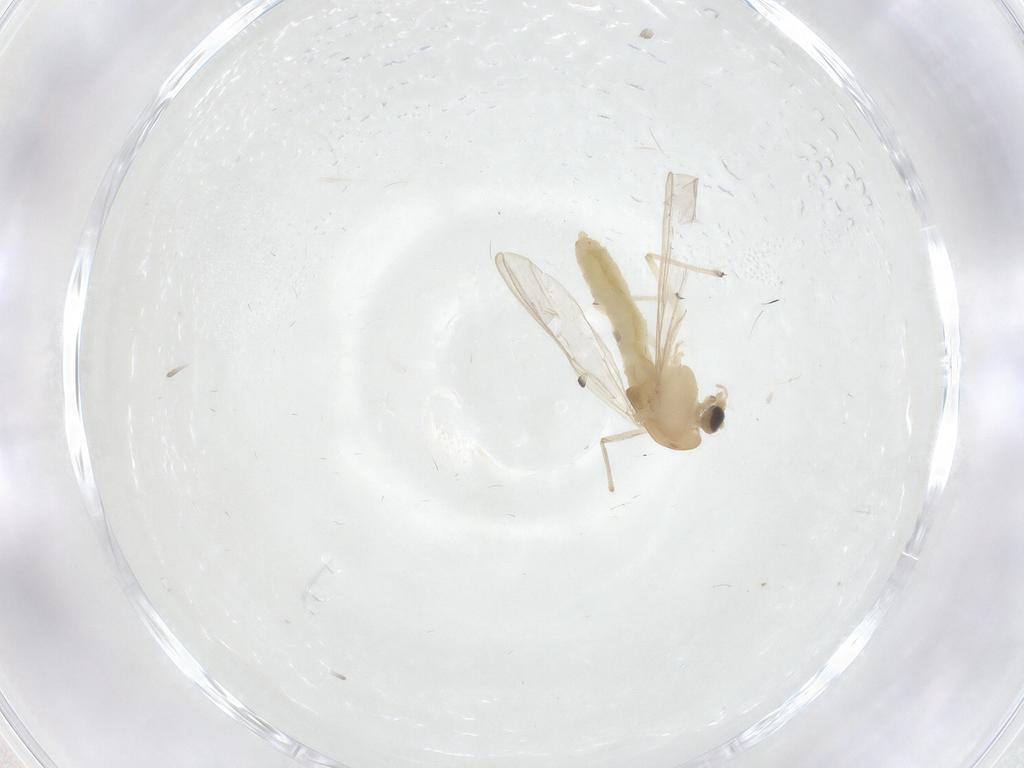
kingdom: Animalia
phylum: Arthropoda
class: Insecta
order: Diptera
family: Chironomidae
